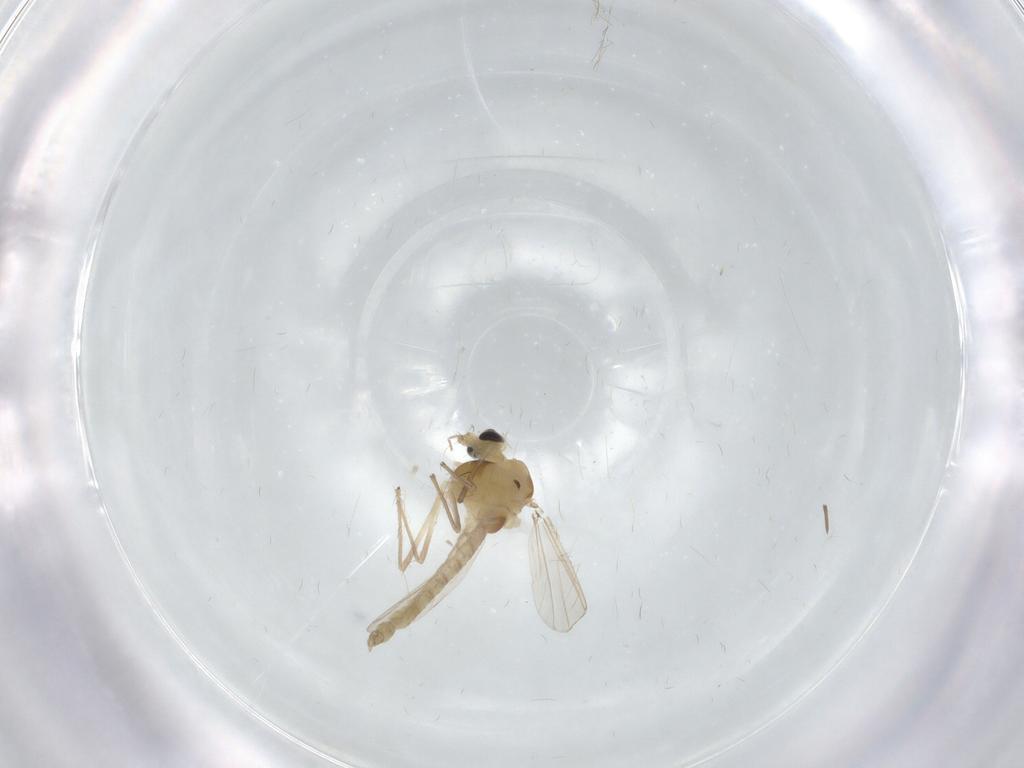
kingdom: Animalia
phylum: Arthropoda
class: Insecta
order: Diptera
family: Chironomidae
